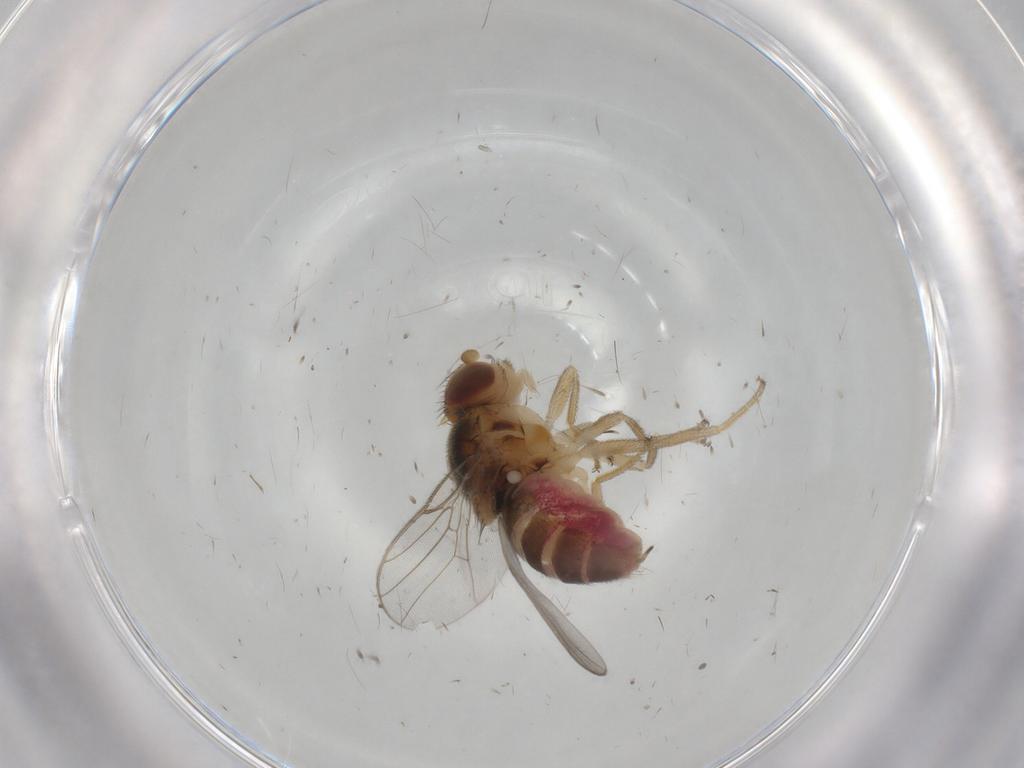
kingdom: Animalia
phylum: Arthropoda
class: Insecta
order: Diptera
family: Chloropidae
